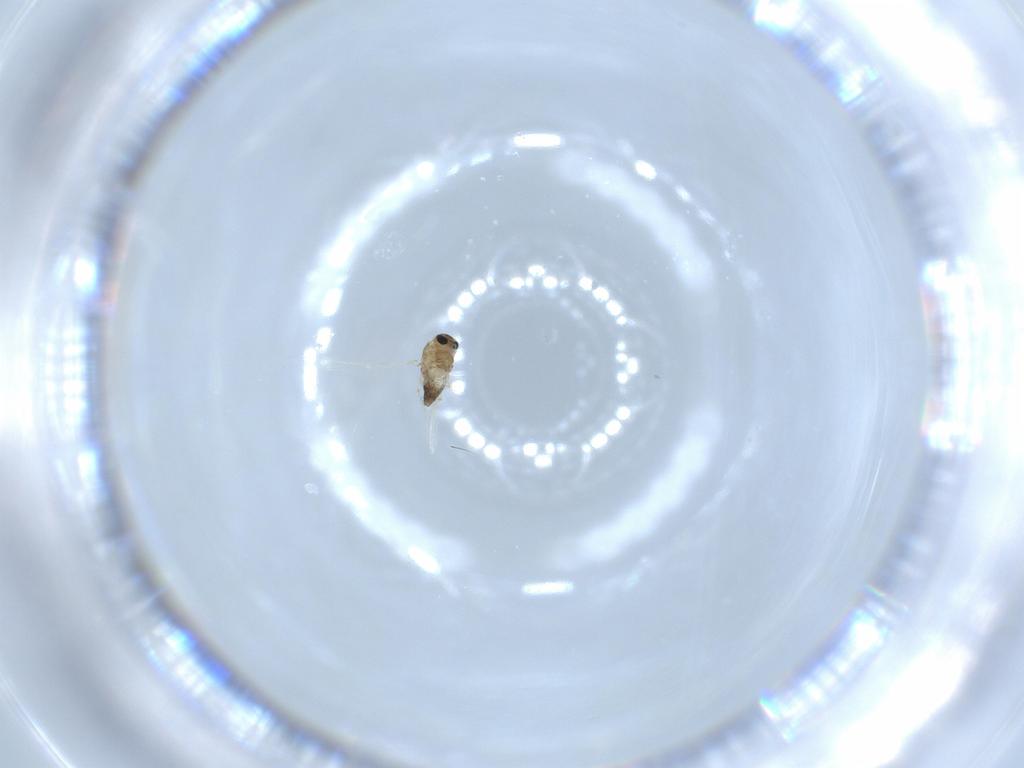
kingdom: Animalia
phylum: Arthropoda
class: Insecta
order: Diptera
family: Chironomidae
